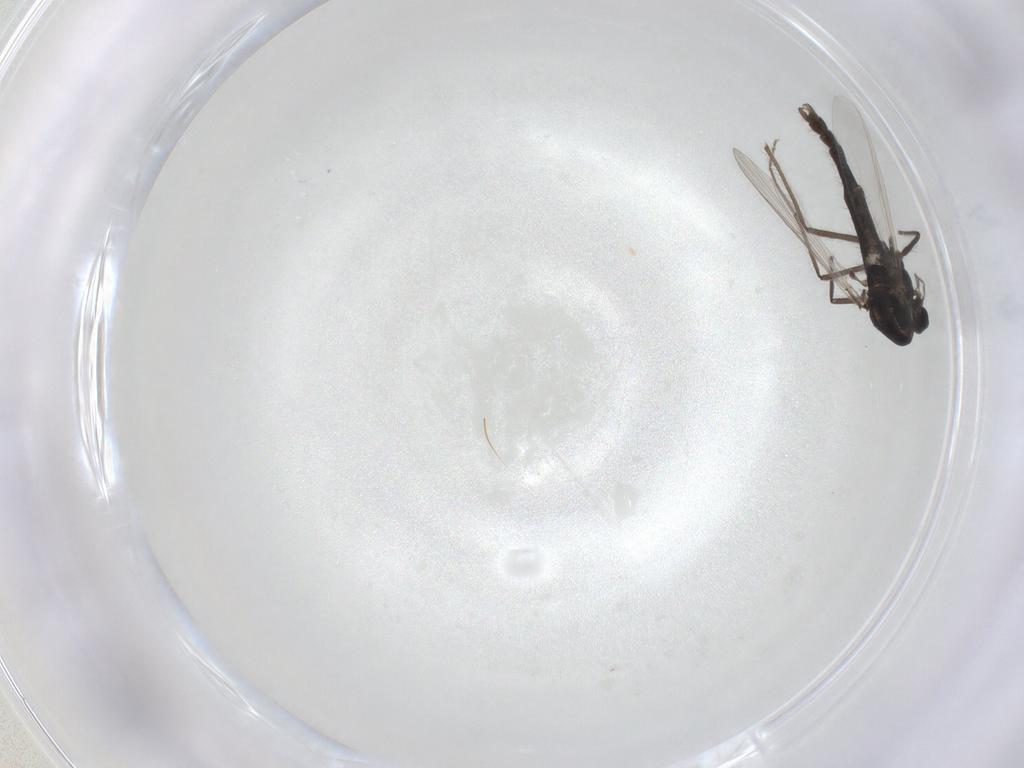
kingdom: Animalia
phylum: Arthropoda
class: Insecta
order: Diptera
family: Chironomidae
